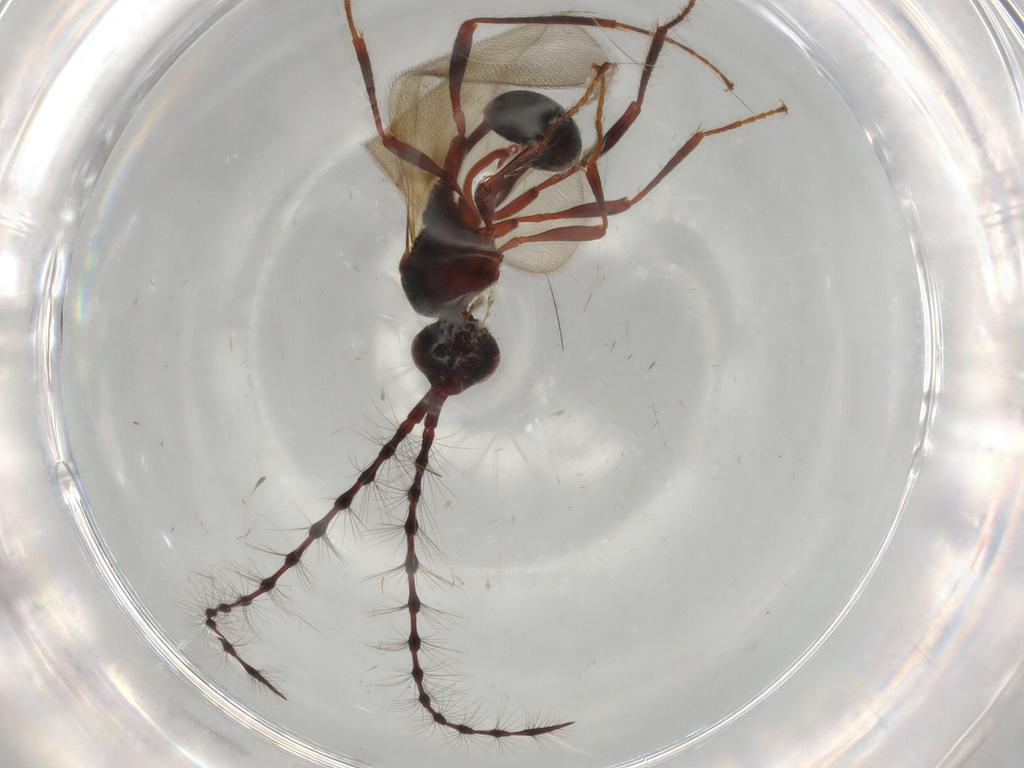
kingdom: Animalia
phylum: Arthropoda
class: Insecta
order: Hymenoptera
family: Diapriidae
